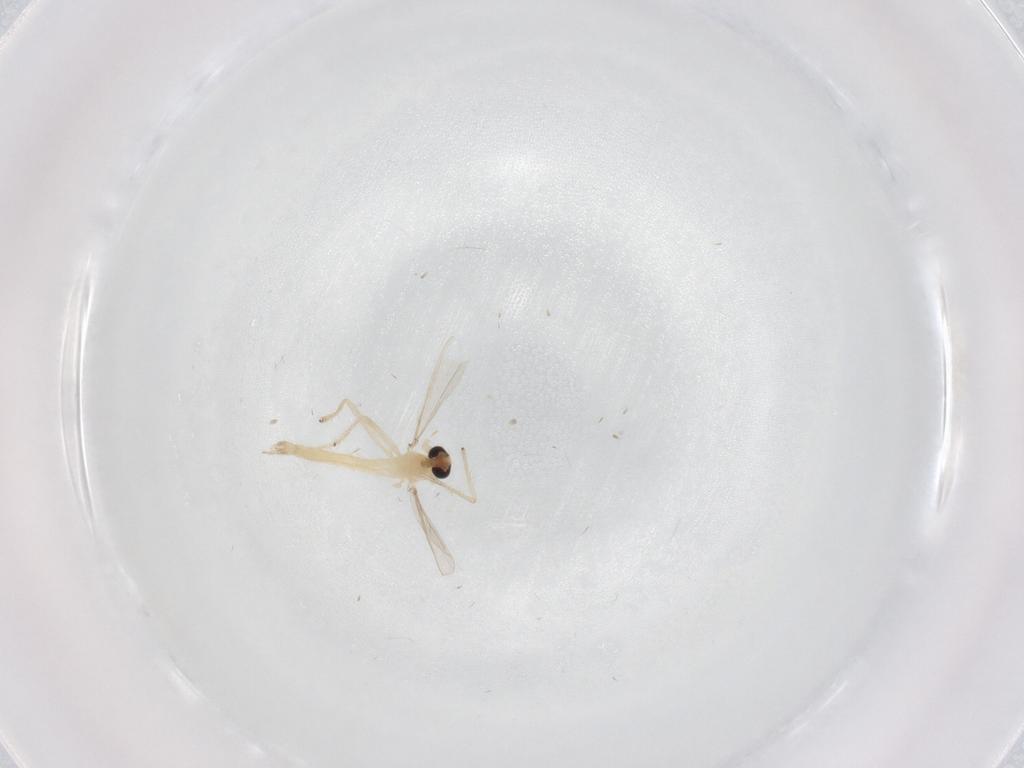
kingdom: Animalia
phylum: Arthropoda
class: Insecta
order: Diptera
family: Chironomidae
